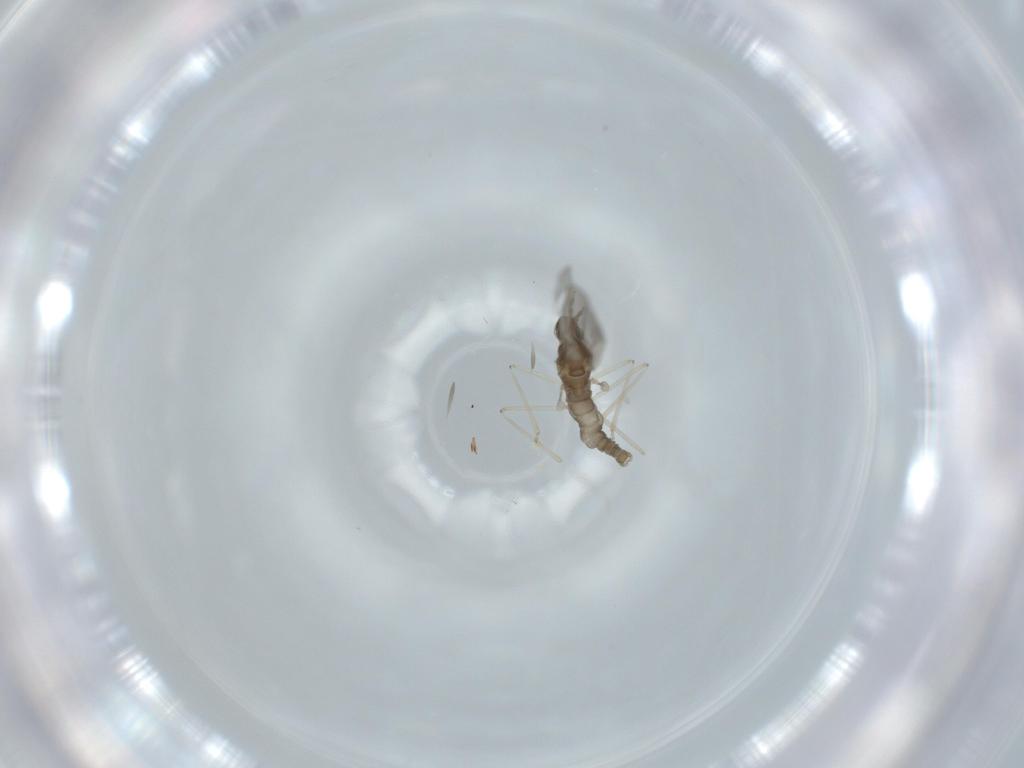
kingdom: Animalia
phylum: Arthropoda
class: Insecta
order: Diptera
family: Cecidomyiidae
